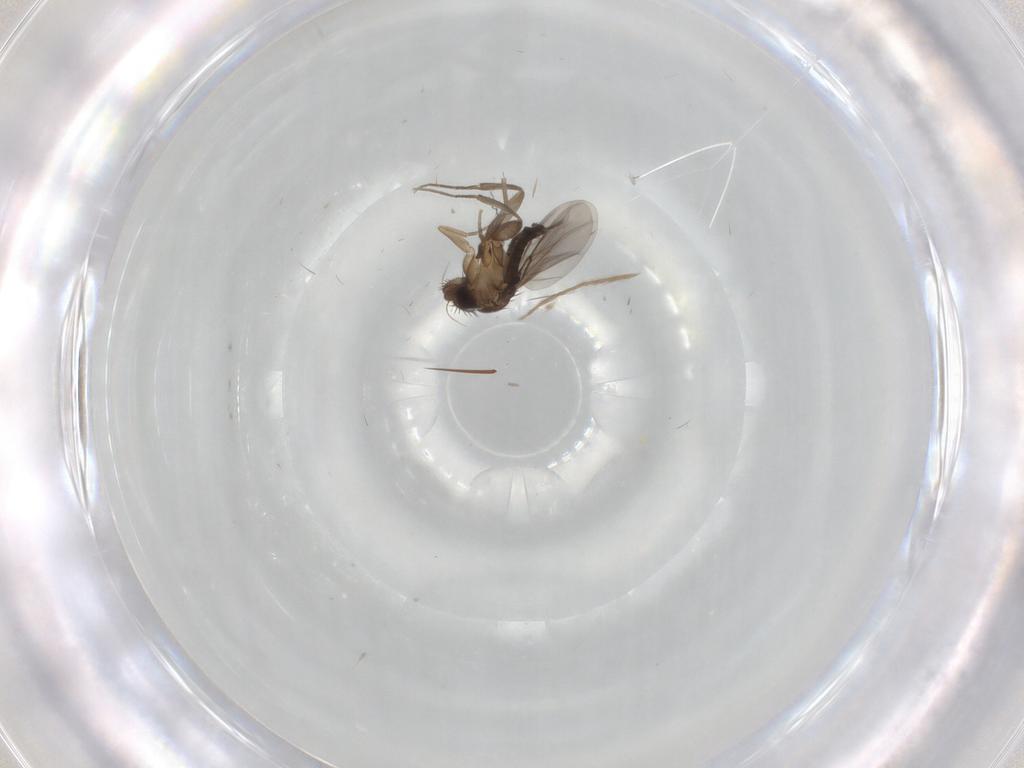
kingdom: Animalia
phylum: Arthropoda
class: Insecta
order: Diptera
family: Phoridae
